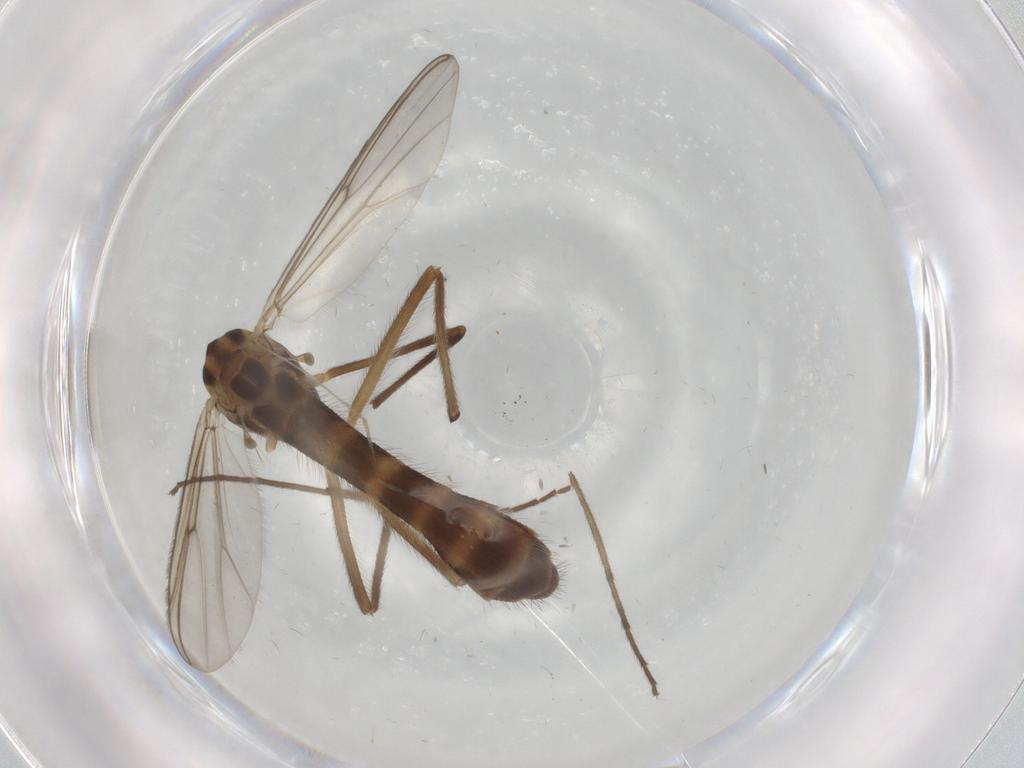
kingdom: Animalia
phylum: Arthropoda
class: Insecta
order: Diptera
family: Chironomidae
